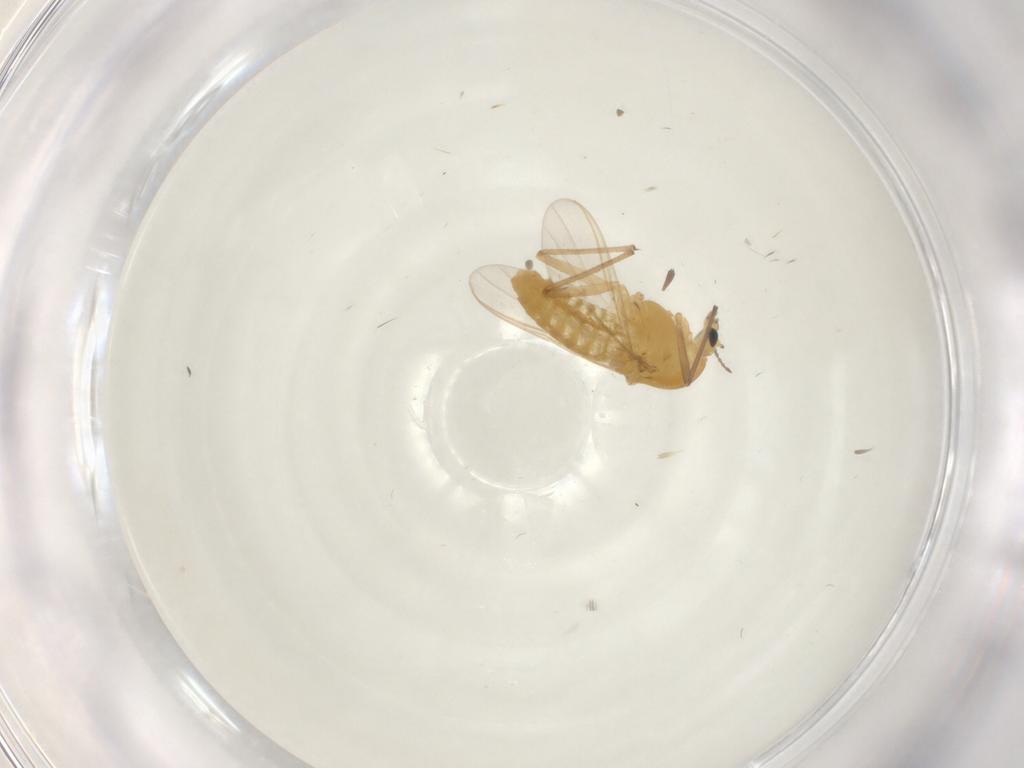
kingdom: Animalia
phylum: Arthropoda
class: Insecta
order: Diptera
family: Chironomidae
